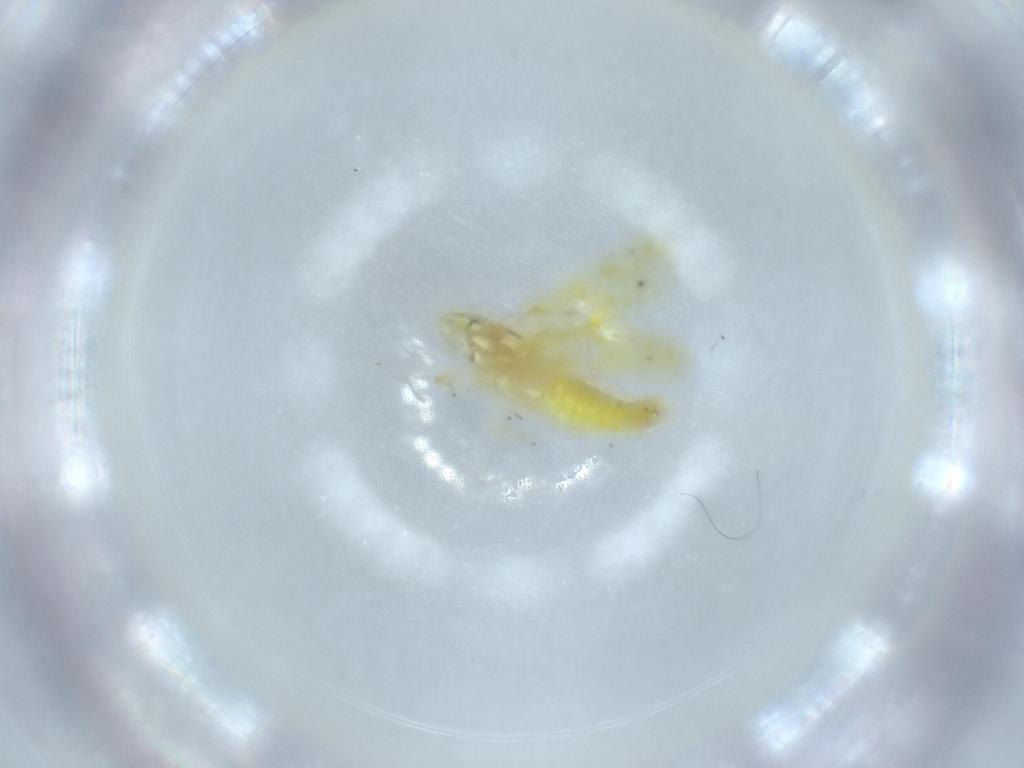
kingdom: Animalia
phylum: Arthropoda
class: Insecta
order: Hemiptera
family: Cicadellidae
